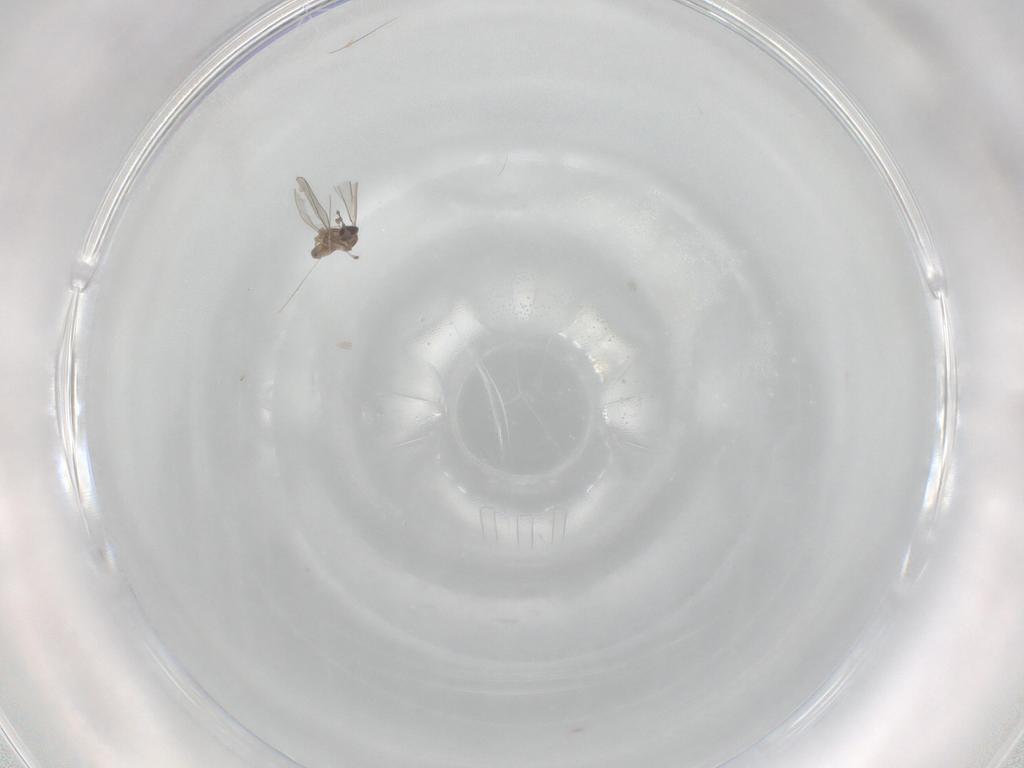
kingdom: Animalia
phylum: Arthropoda
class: Insecta
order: Diptera
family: Cecidomyiidae
